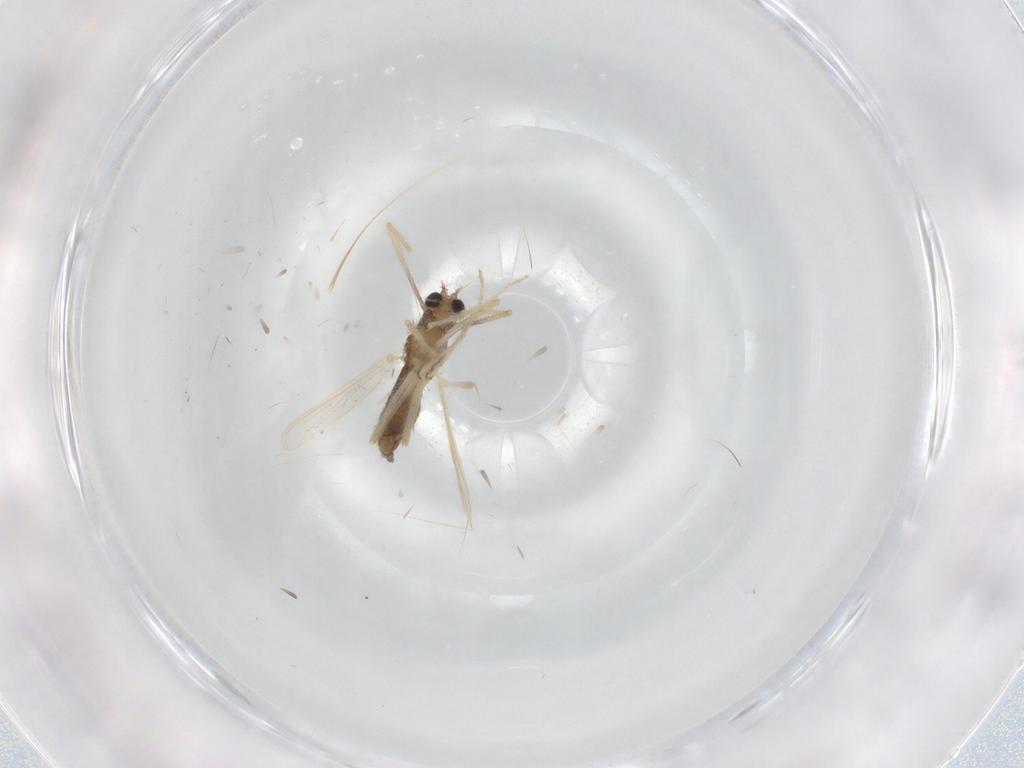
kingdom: Animalia
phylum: Arthropoda
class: Insecta
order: Diptera
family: Chironomidae
